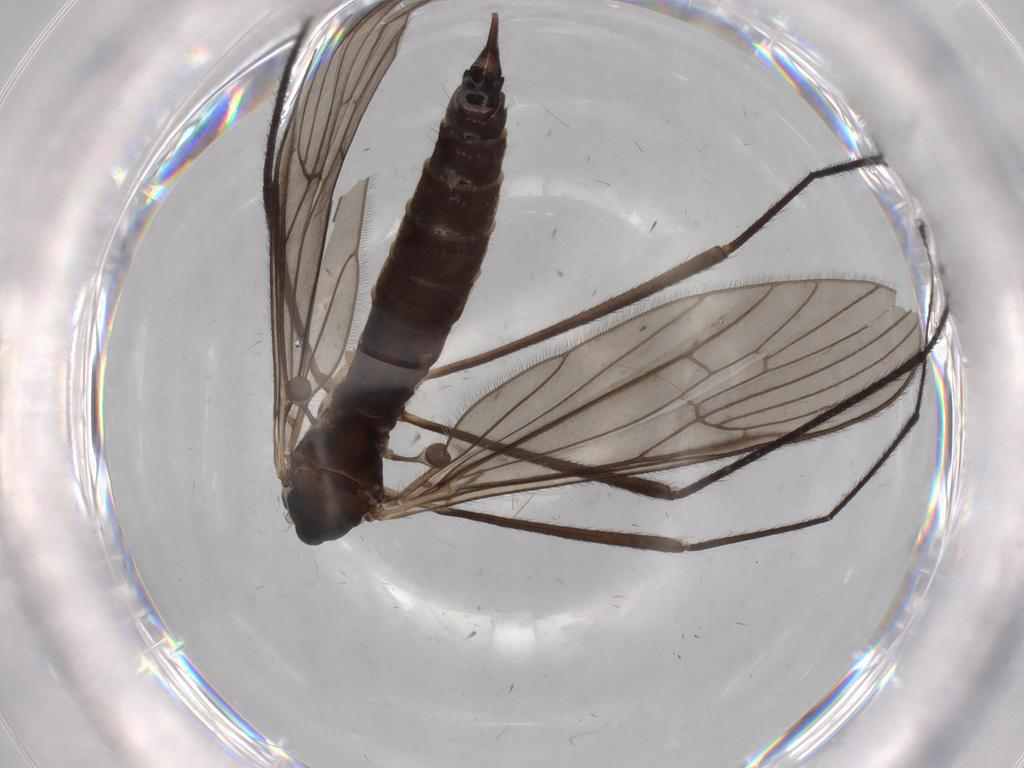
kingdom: Animalia
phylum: Arthropoda
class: Insecta
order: Diptera
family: Limoniidae
